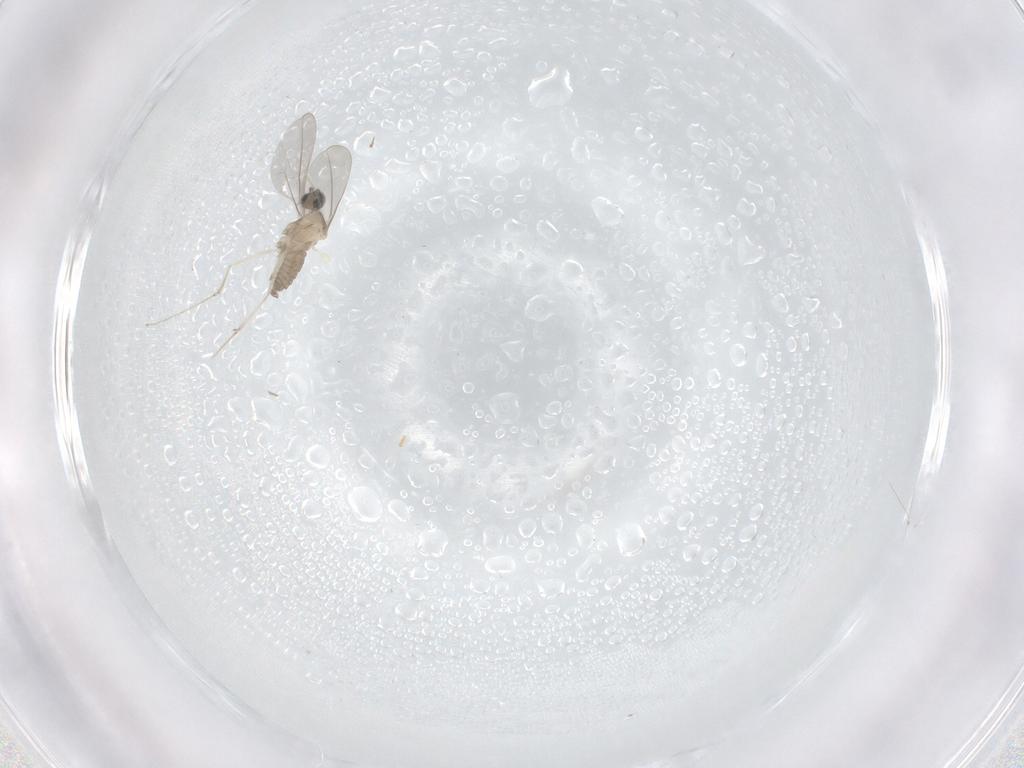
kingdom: Animalia
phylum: Arthropoda
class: Insecta
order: Diptera
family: Cecidomyiidae
